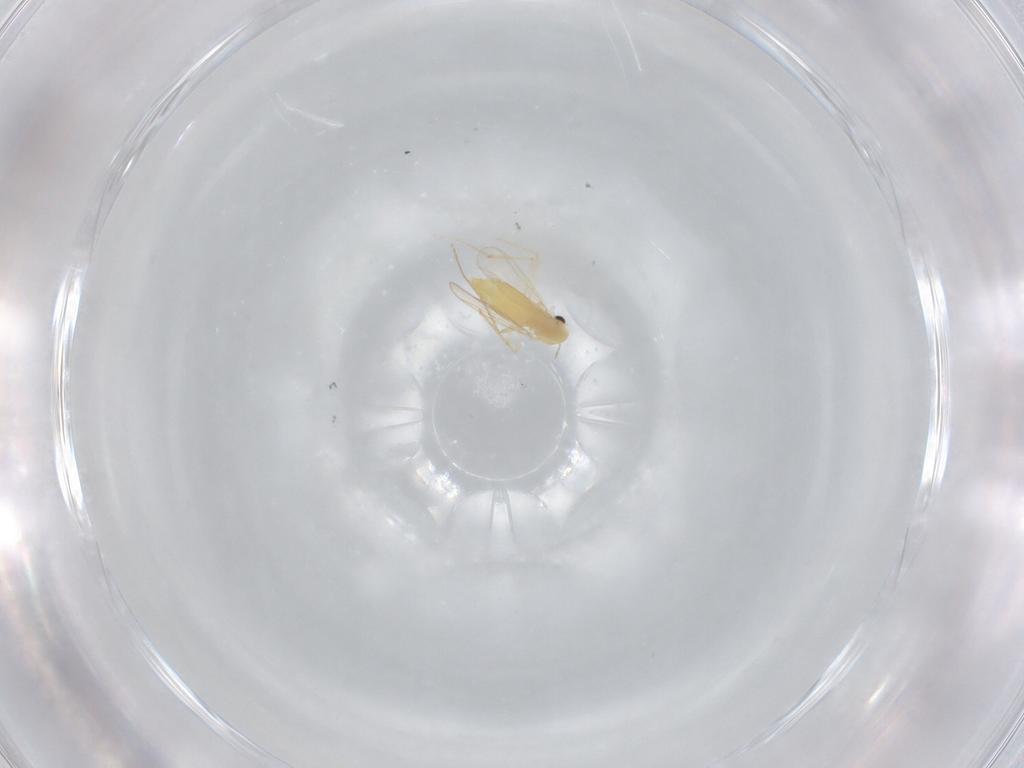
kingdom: Animalia
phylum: Arthropoda
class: Insecta
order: Diptera
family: Chironomidae
